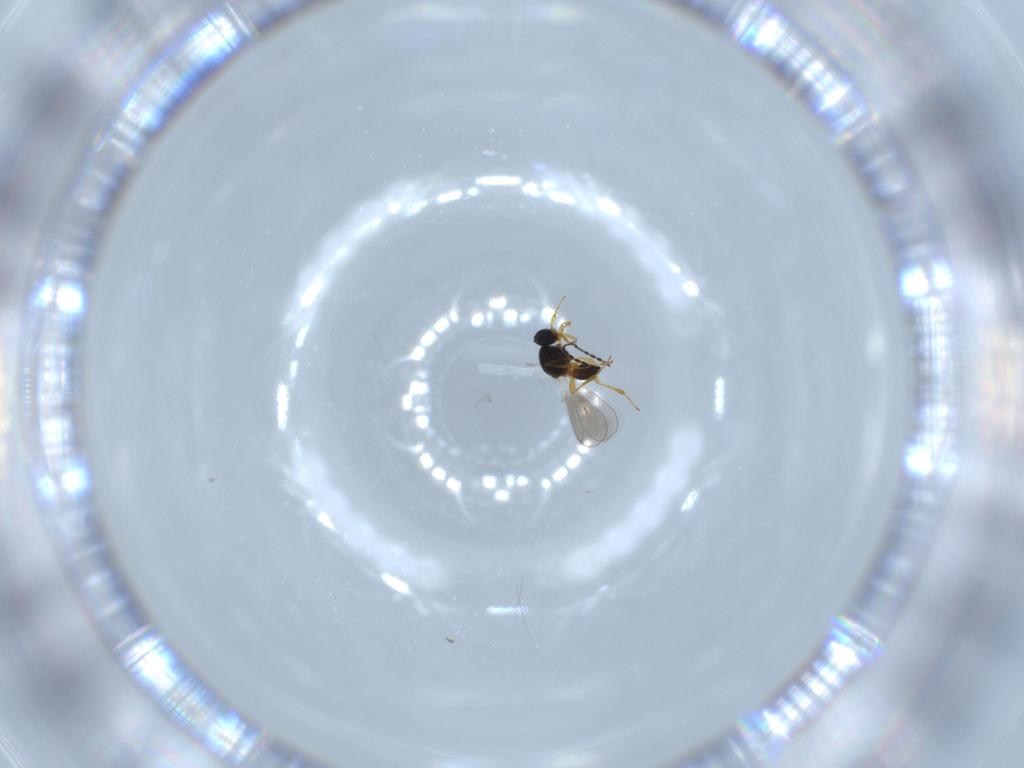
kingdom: Animalia
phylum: Arthropoda
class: Insecta
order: Hymenoptera
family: Platygastridae
